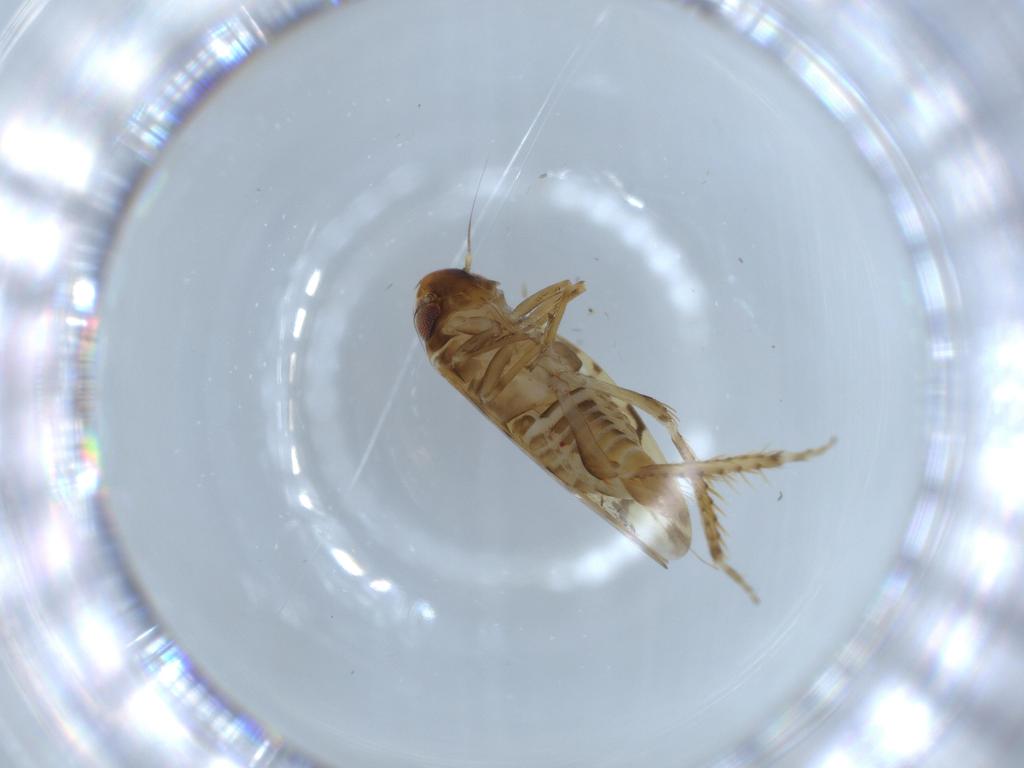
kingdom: Animalia
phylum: Arthropoda
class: Insecta
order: Hemiptera
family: Cicadellidae
